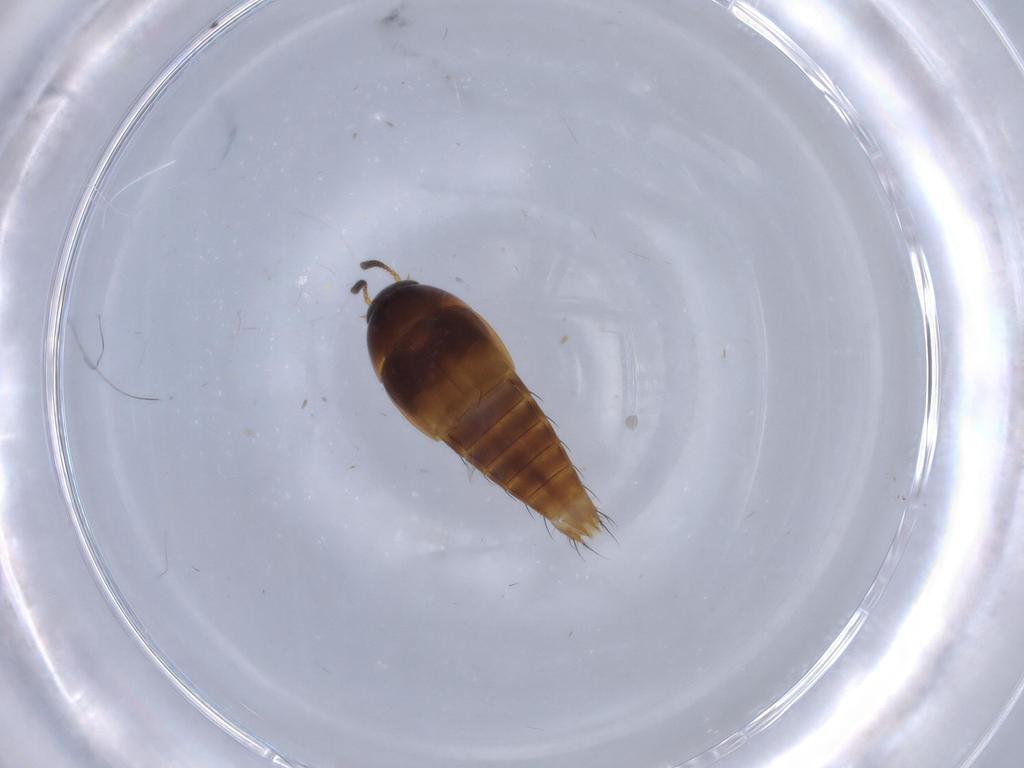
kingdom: Animalia
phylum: Arthropoda
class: Insecta
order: Coleoptera
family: Staphylinidae
